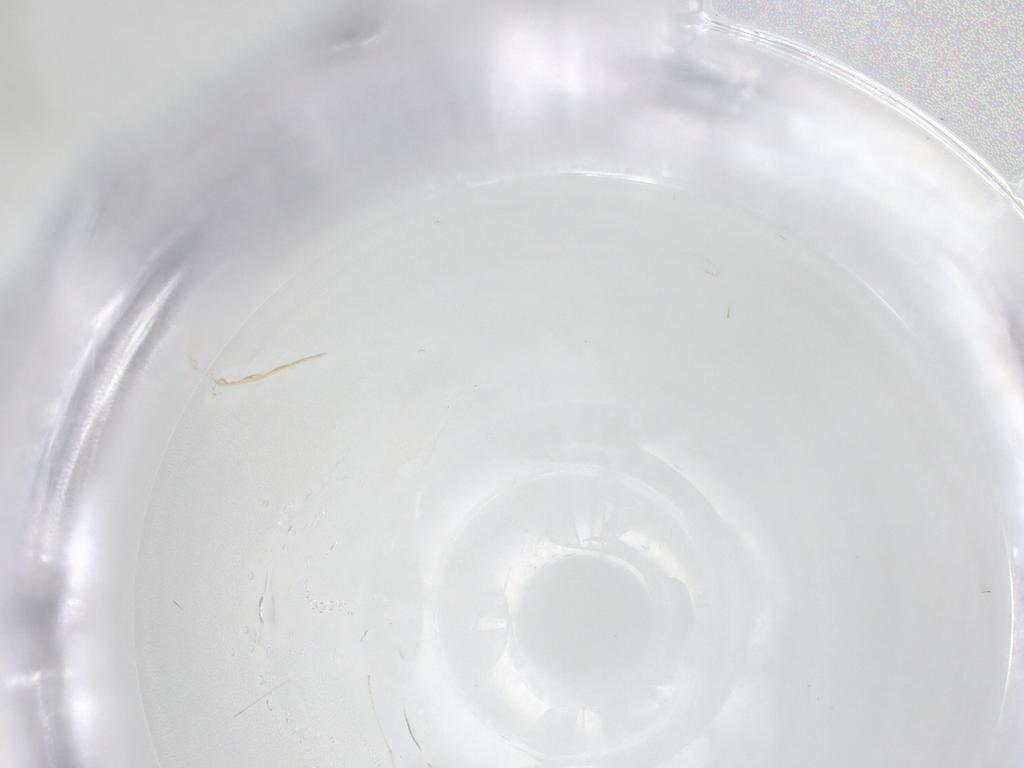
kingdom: Animalia
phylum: Arthropoda
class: Insecta
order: Diptera
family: Cecidomyiidae
